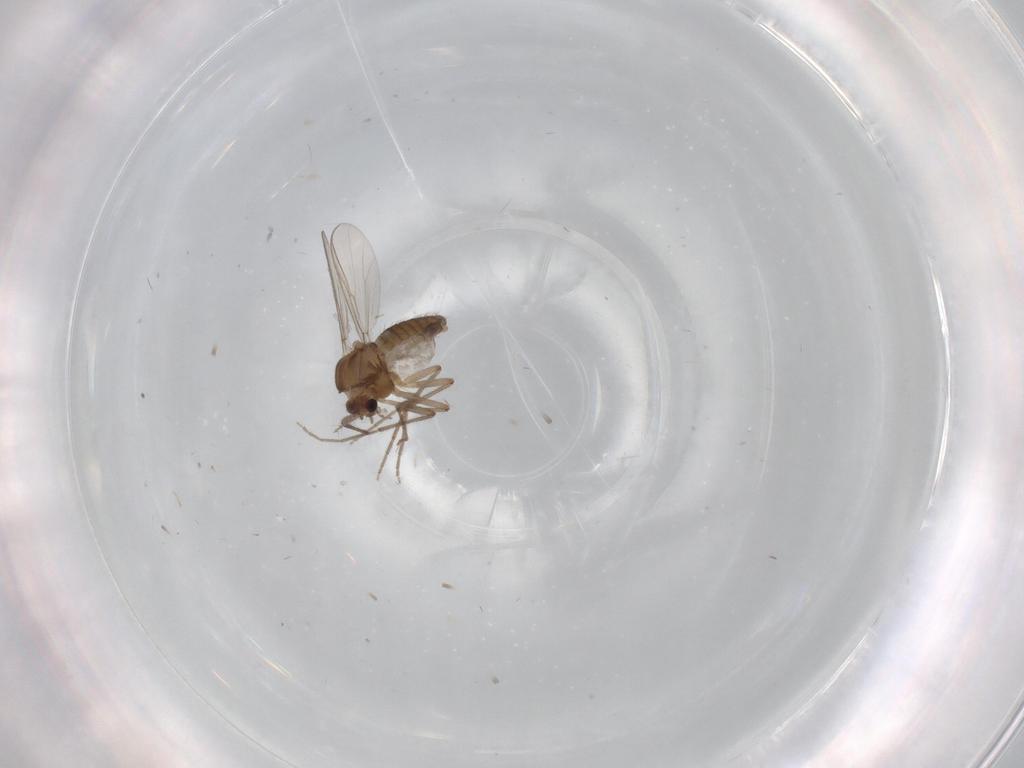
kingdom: Animalia
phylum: Arthropoda
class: Insecta
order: Diptera
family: Chironomidae
